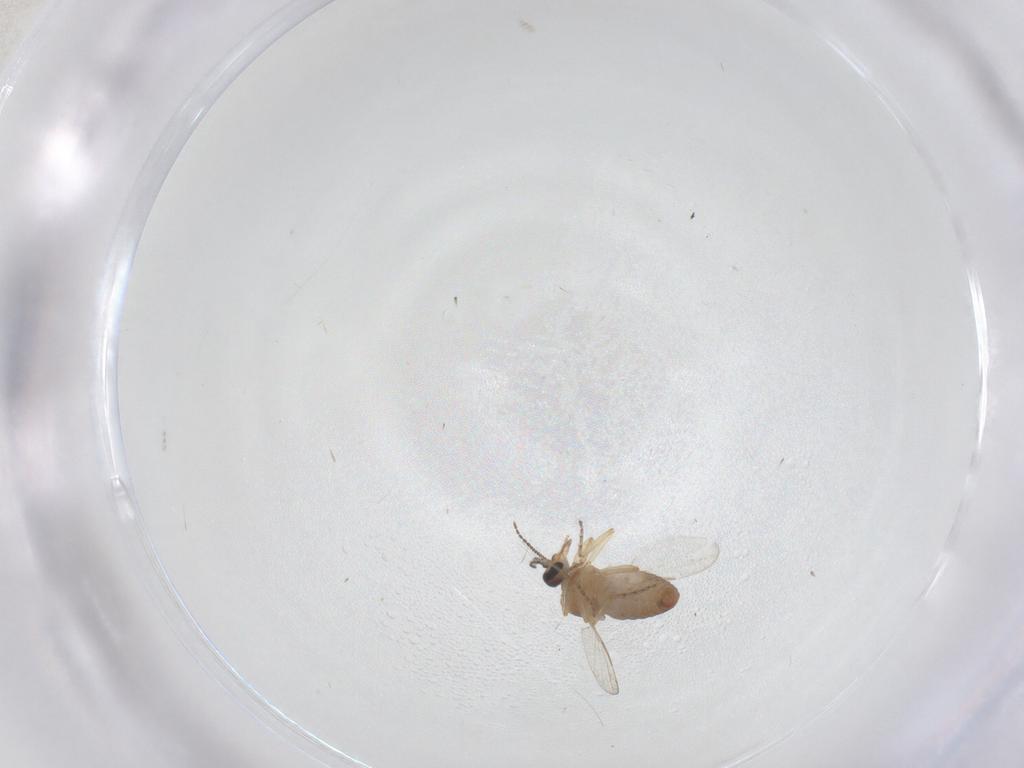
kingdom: Animalia
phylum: Arthropoda
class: Insecta
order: Diptera
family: Ceratopogonidae
